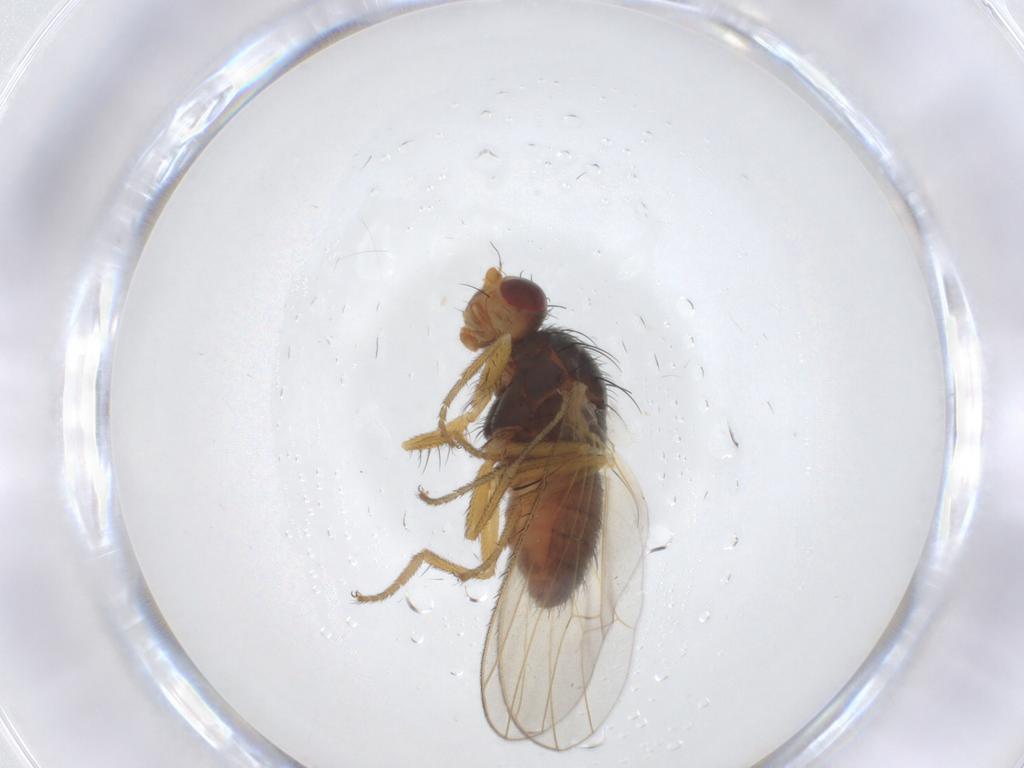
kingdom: Animalia
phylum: Arthropoda
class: Insecta
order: Diptera
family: Heleomyzidae
